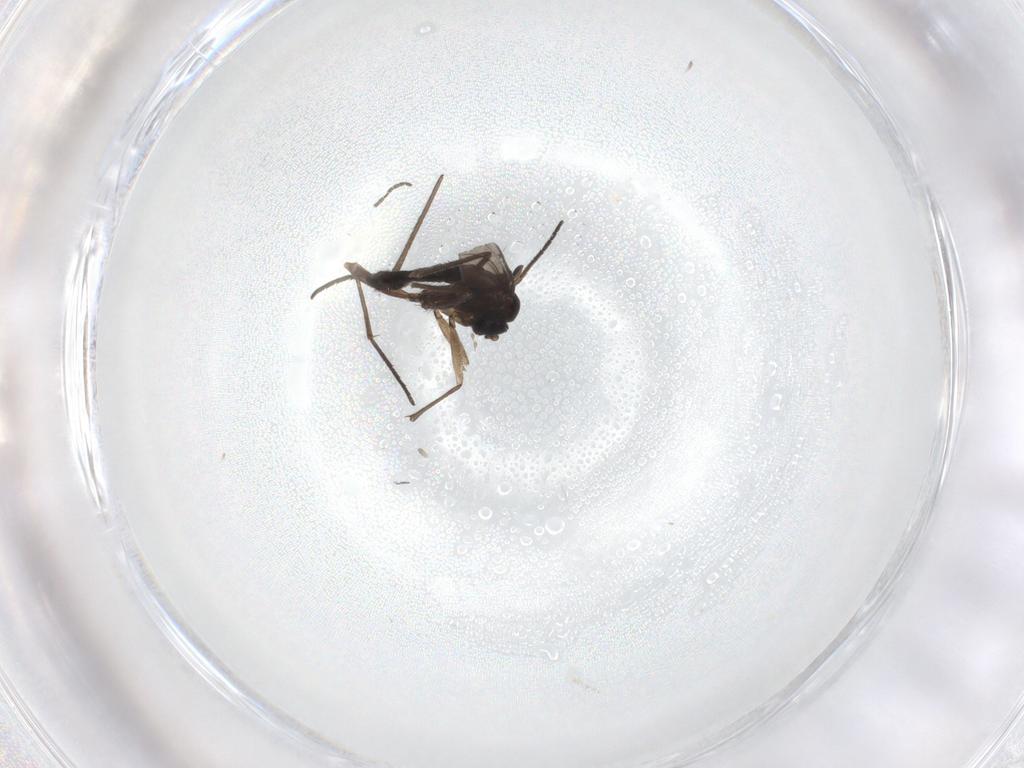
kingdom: Animalia
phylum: Arthropoda
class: Insecta
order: Diptera
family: Sciaridae
